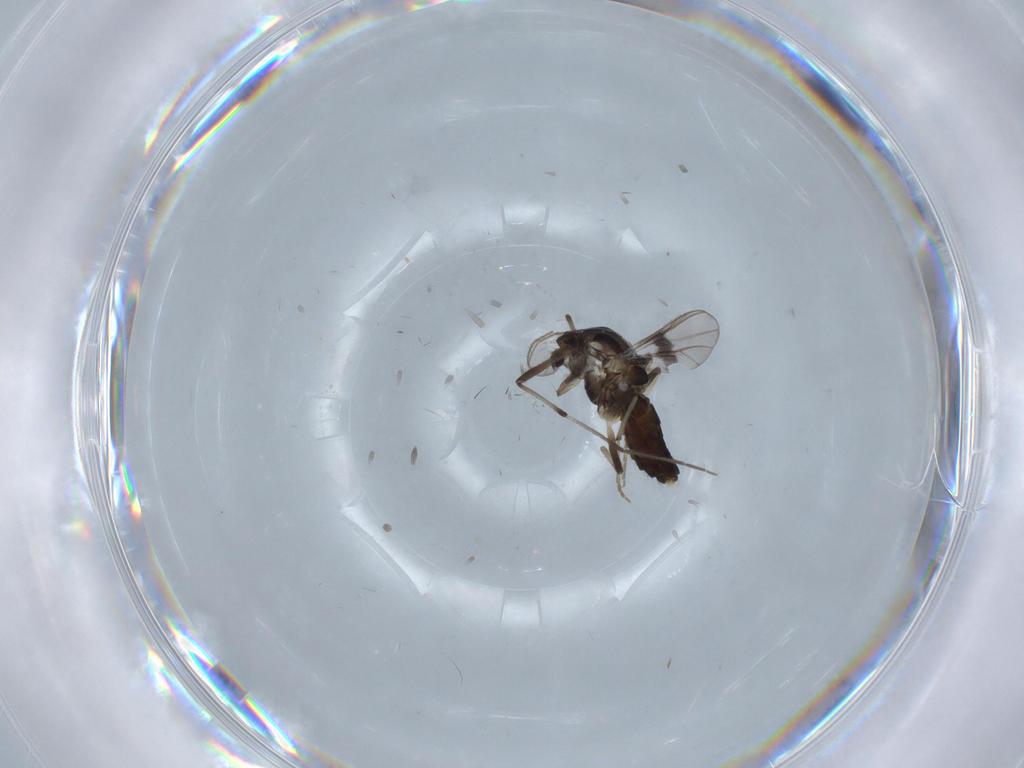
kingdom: Animalia
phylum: Arthropoda
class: Insecta
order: Diptera
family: Chironomidae
